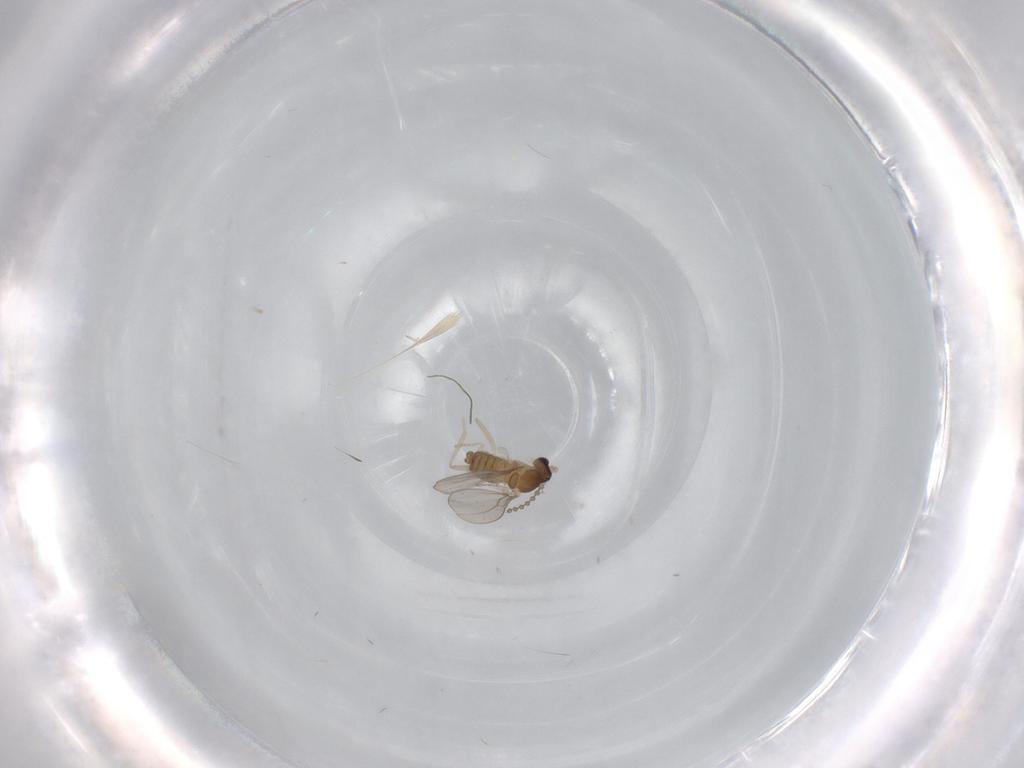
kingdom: Animalia
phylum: Arthropoda
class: Insecta
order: Diptera
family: Cecidomyiidae
